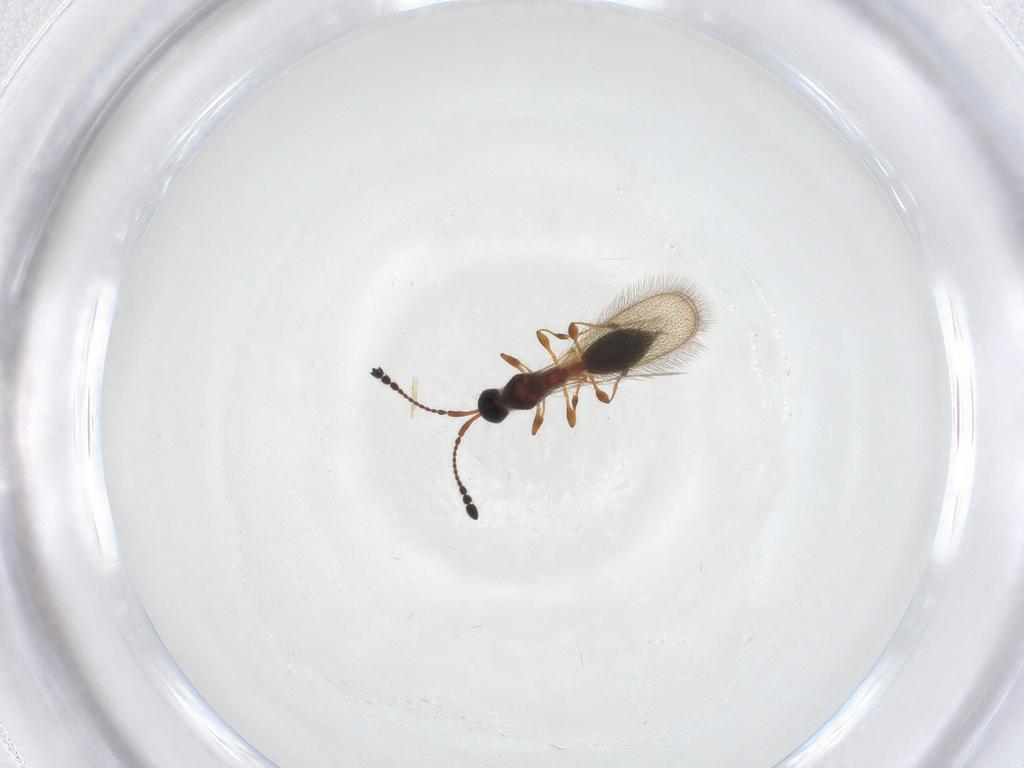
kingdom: Animalia
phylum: Arthropoda
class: Insecta
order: Hymenoptera
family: Diapriidae
